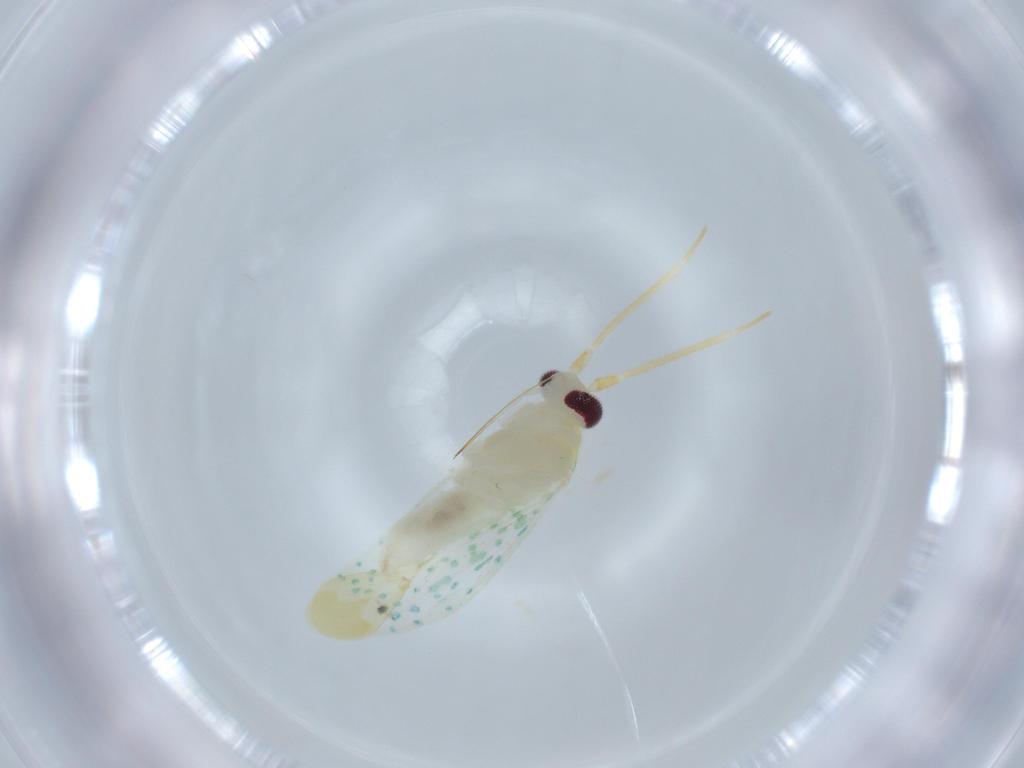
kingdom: Animalia
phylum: Arthropoda
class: Insecta
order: Hemiptera
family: Miridae
